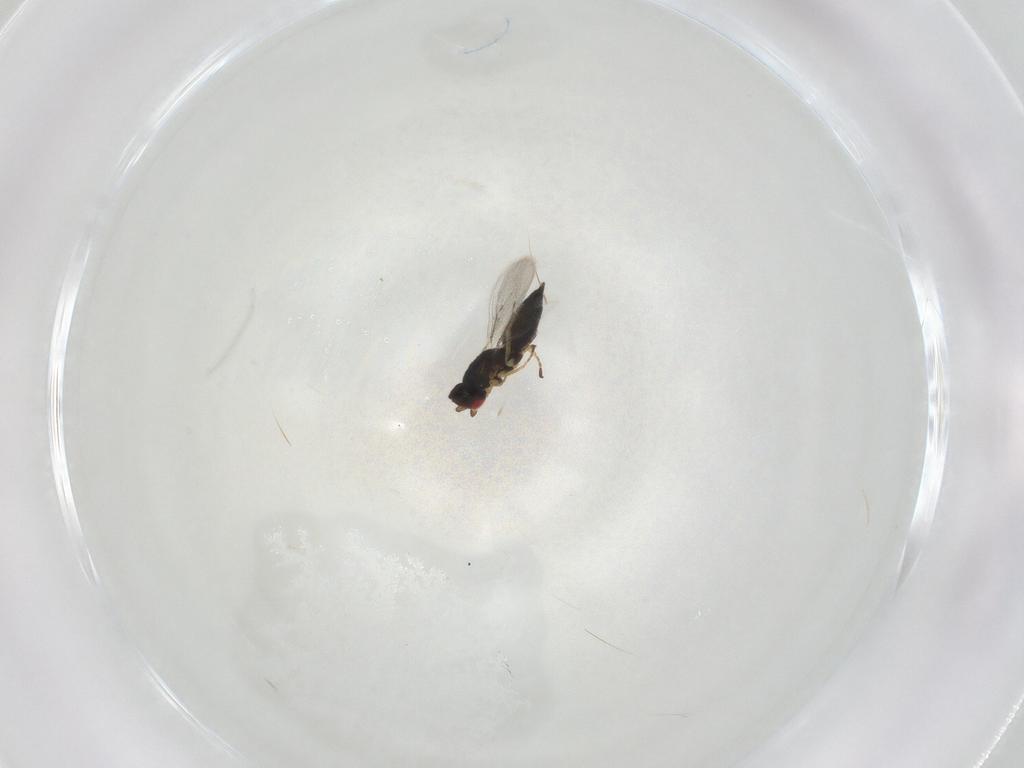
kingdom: Animalia
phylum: Arthropoda
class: Insecta
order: Hymenoptera
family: Eulophidae
